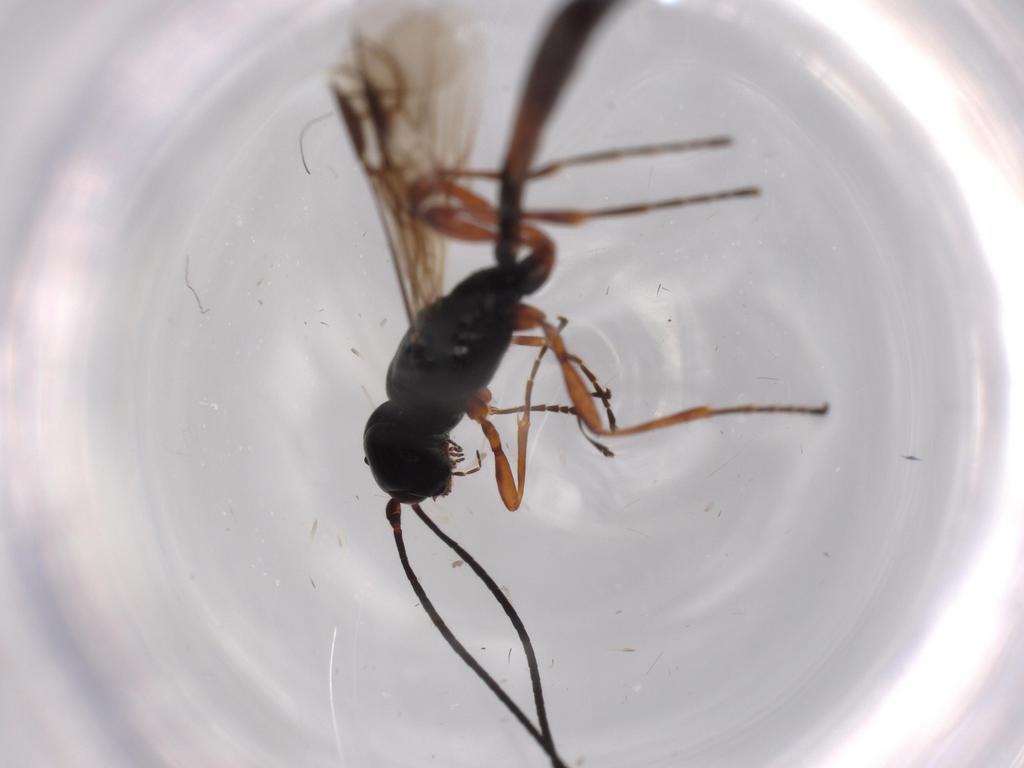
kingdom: Animalia
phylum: Arthropoda
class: Insecta
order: Hymenoptera
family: Braconidae
